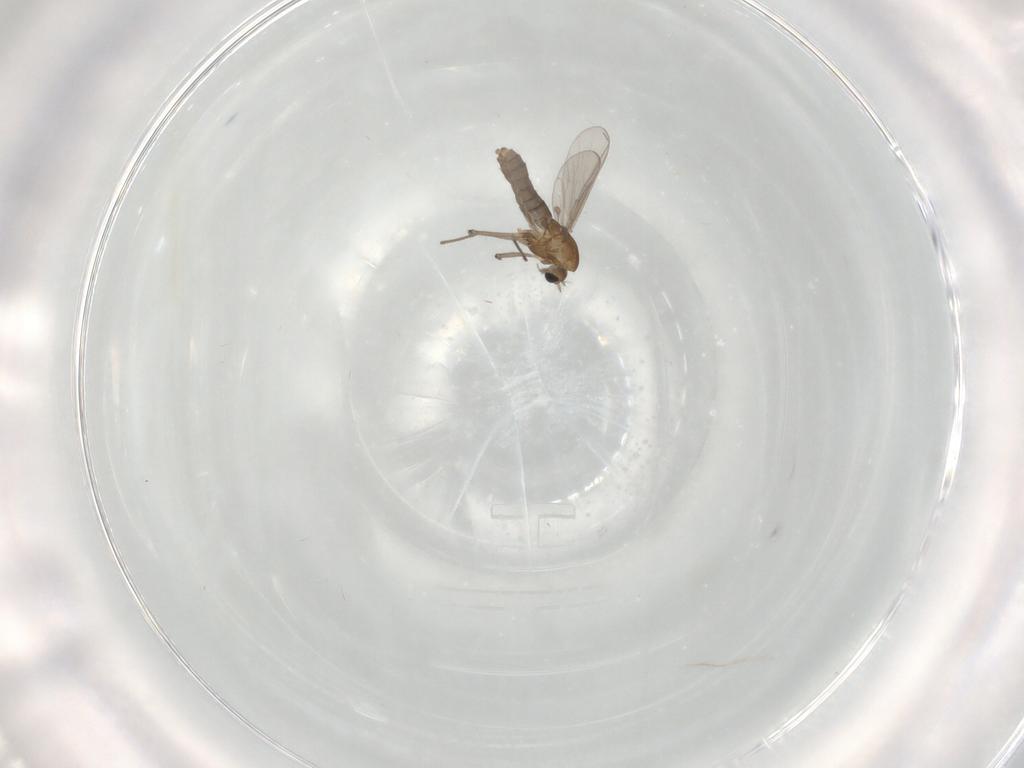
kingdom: Animalia
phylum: Arthropoda
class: Insecta
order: Diptera
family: Chironomidae
